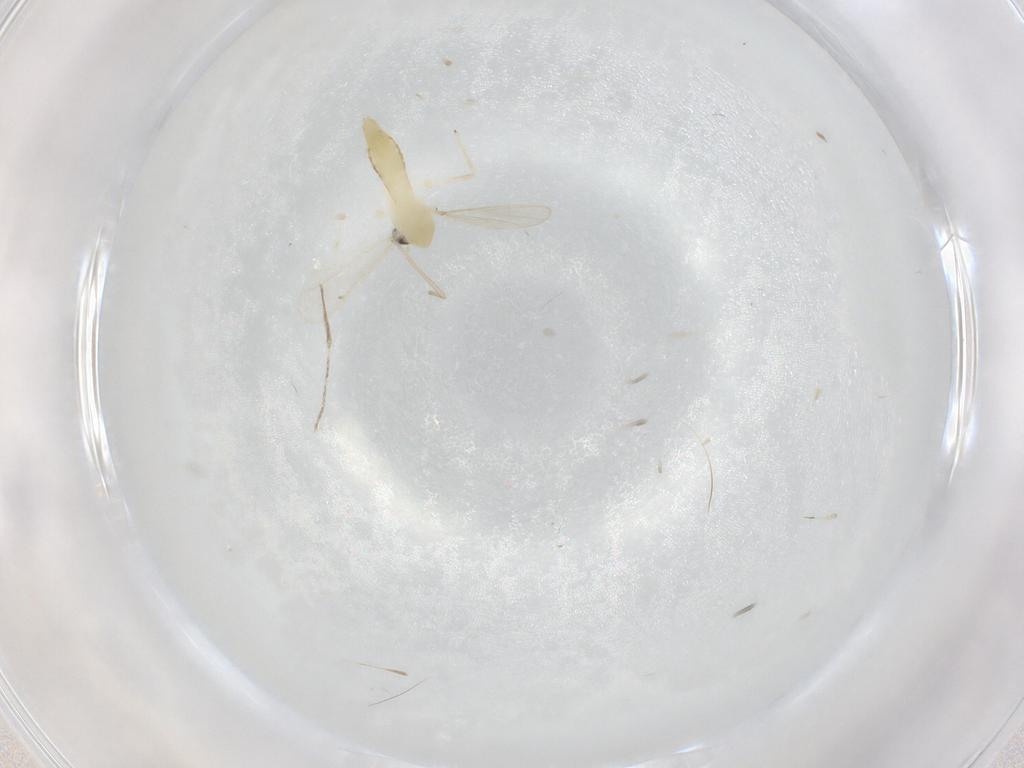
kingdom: Animalia
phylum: Arthropoda
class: Insecta
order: Diptera
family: Chironomidae
